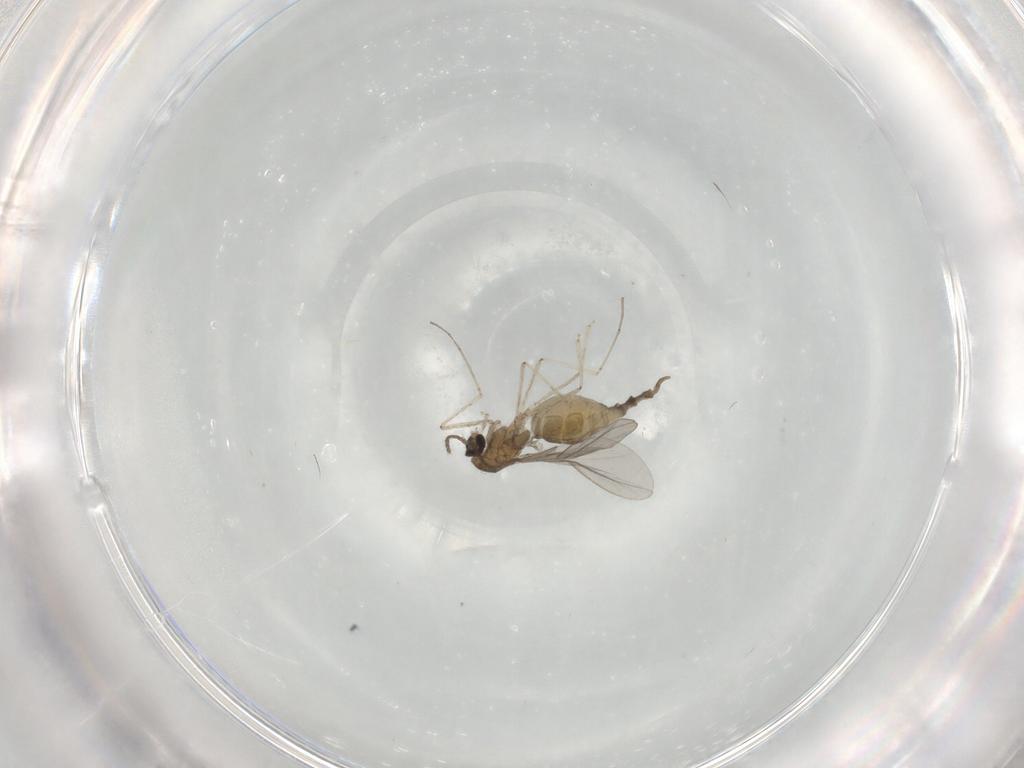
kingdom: Animalia
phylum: Arthropoda
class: Insecta
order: Diptera
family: Cecidomyiidae
